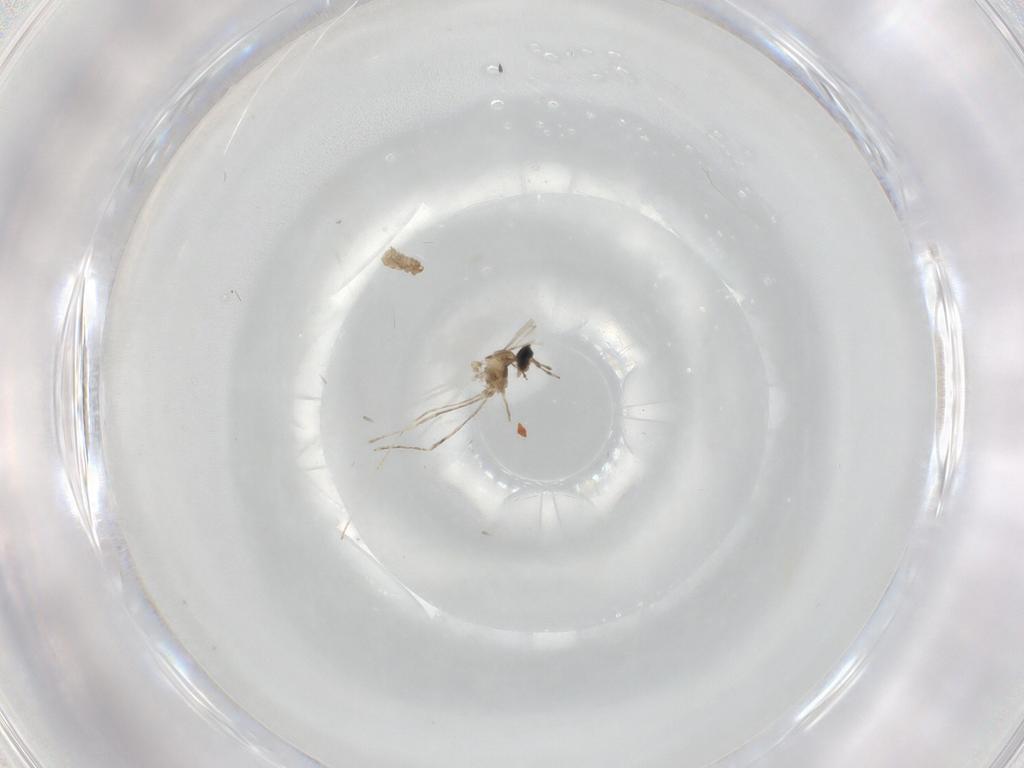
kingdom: Animalia
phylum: Arthropoda
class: Insecta
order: Diptera
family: Cecidomyiidae
